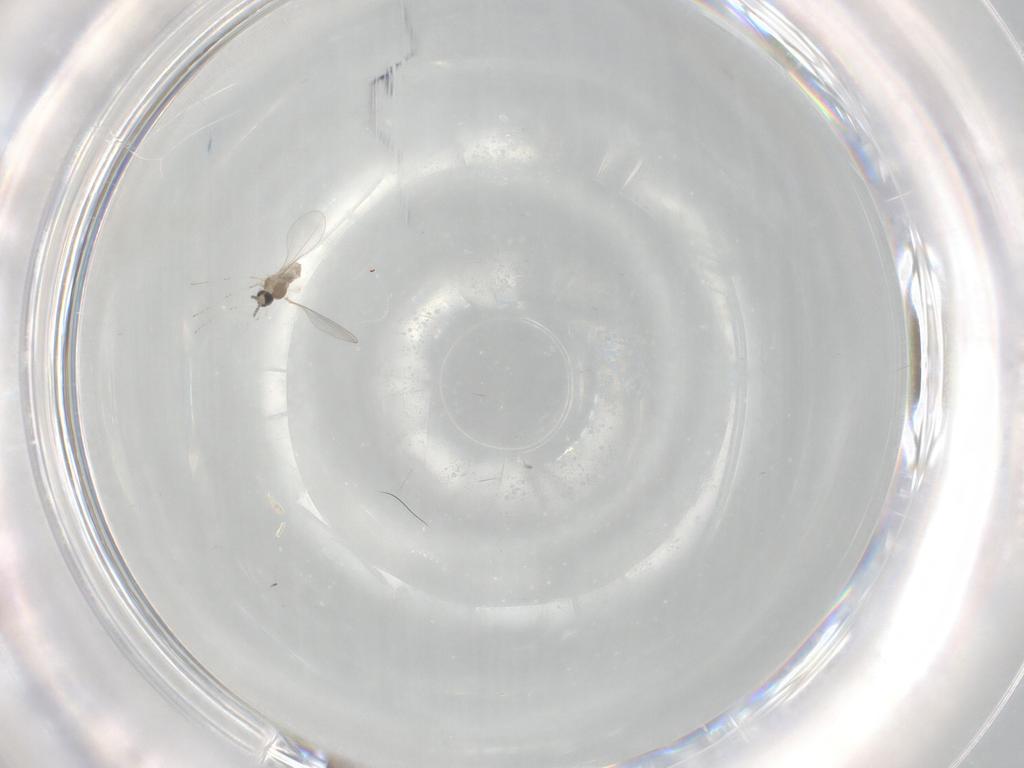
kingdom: Animalia
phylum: Arthropoda
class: Insecta
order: Diptera
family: Cecidomyiidae
